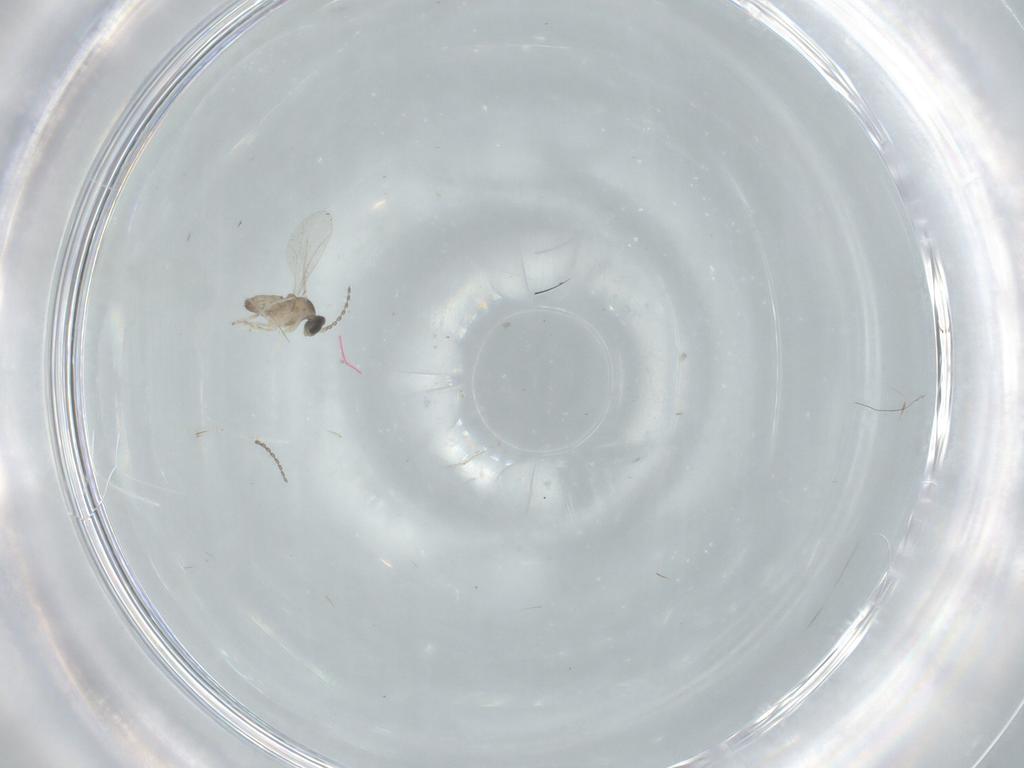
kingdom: Animalia
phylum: Arthropoda
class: Insecta
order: Diptera
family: Cecidomyiidae
